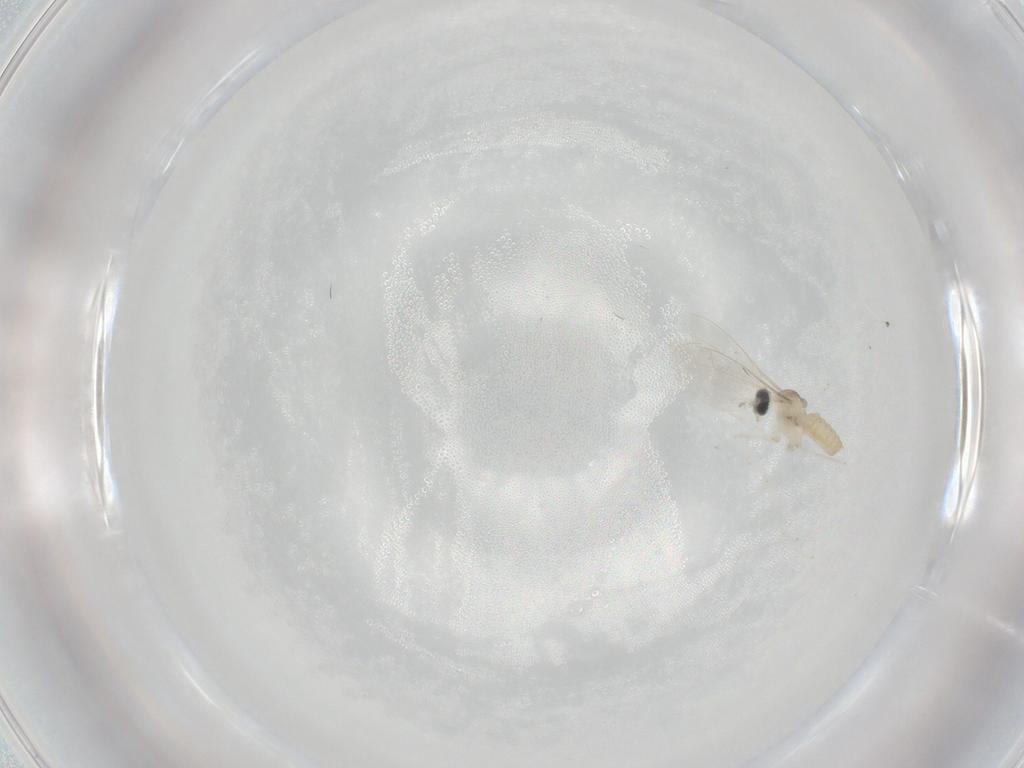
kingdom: Animalia
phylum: Arthropoda
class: Insecta
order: Diptera
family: Cecidomyiidae
